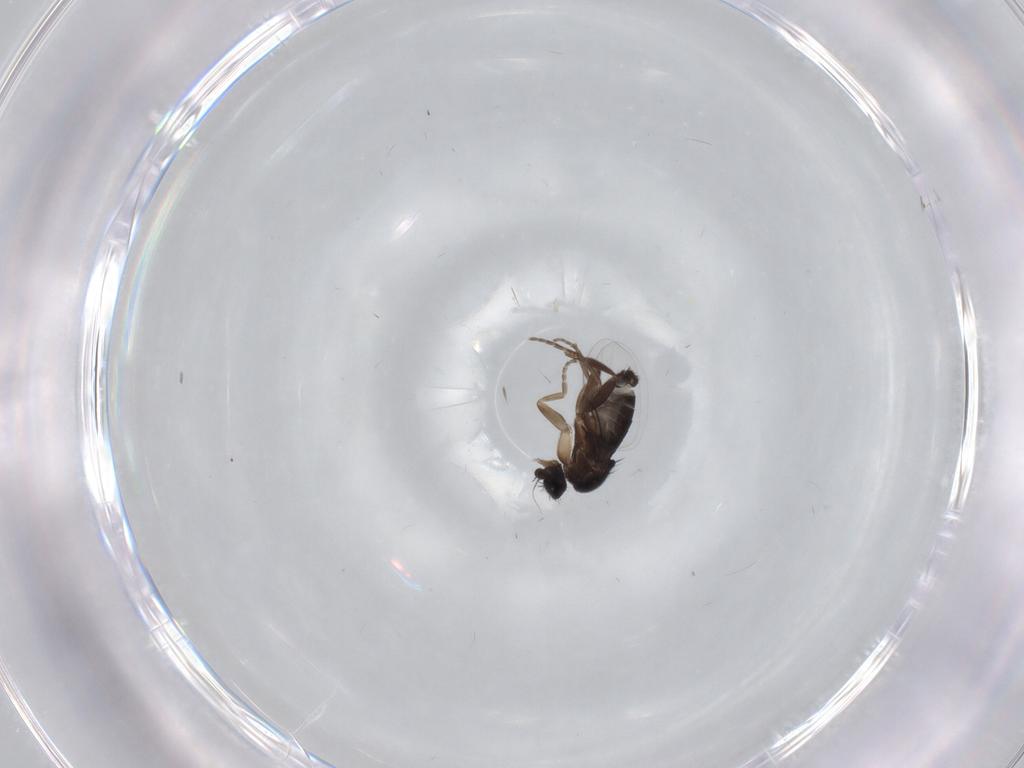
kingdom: Animalia
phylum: Arthropoda
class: Insecta
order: Diptera
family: Phoridae
